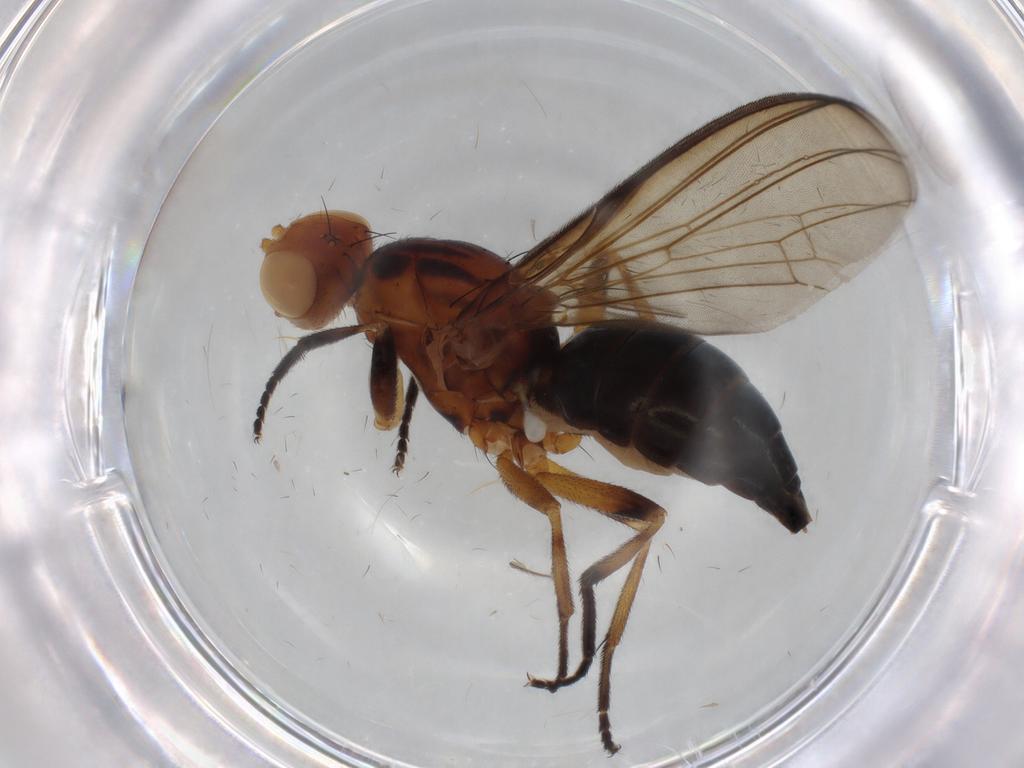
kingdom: Animalia
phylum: Arthropoda
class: Insecta
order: Diptera
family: Piophilidae
